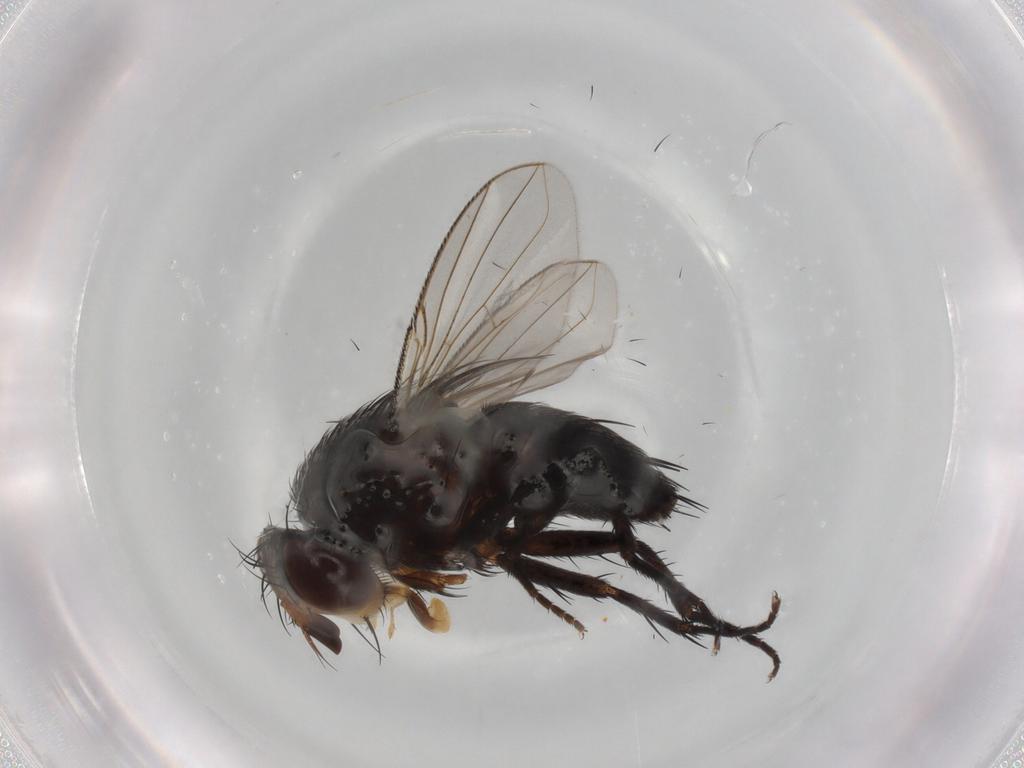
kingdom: Animalia
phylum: Arthropoda
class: Insecta
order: Diptera
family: Tachinidae
